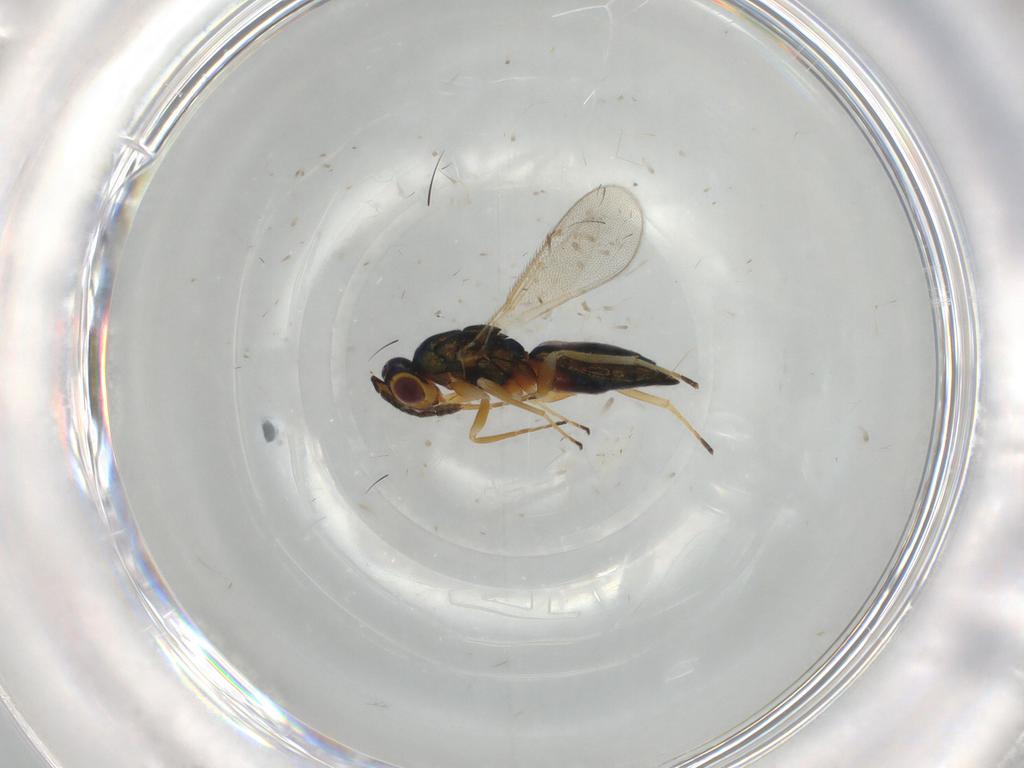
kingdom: Animalia
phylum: Arthropoda
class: Insecta
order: Hymenoptera
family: Eulophidae
